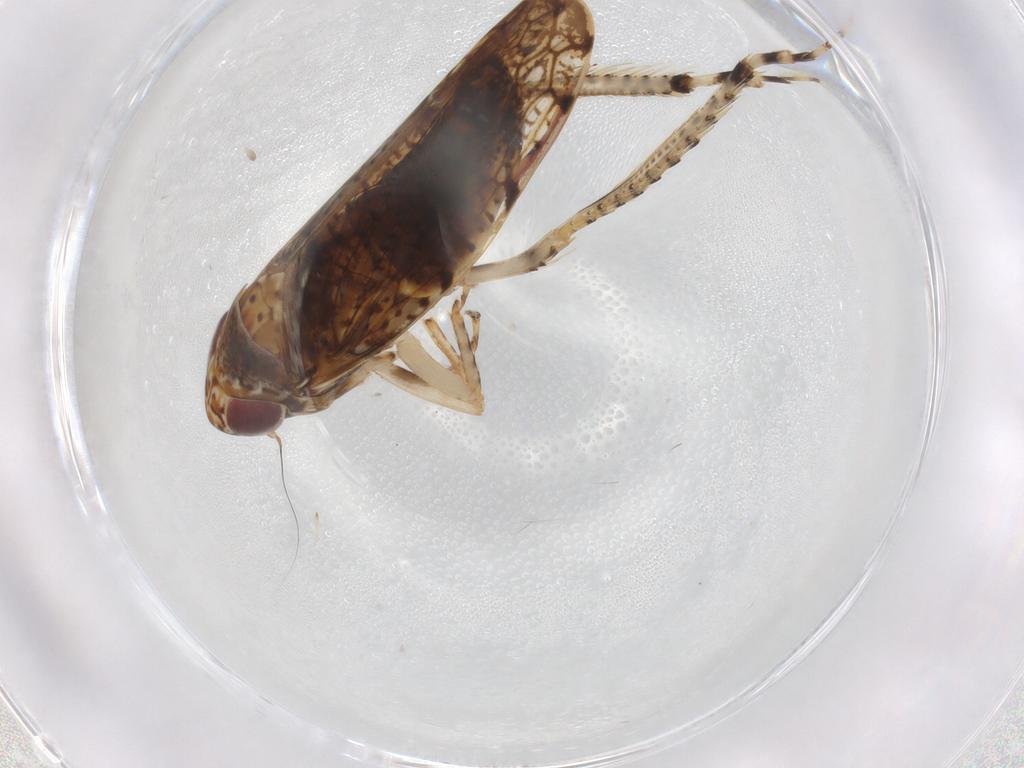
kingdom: Animalia
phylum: Arthropoda
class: Insecta
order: Hemiptera
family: Cicadellidae
